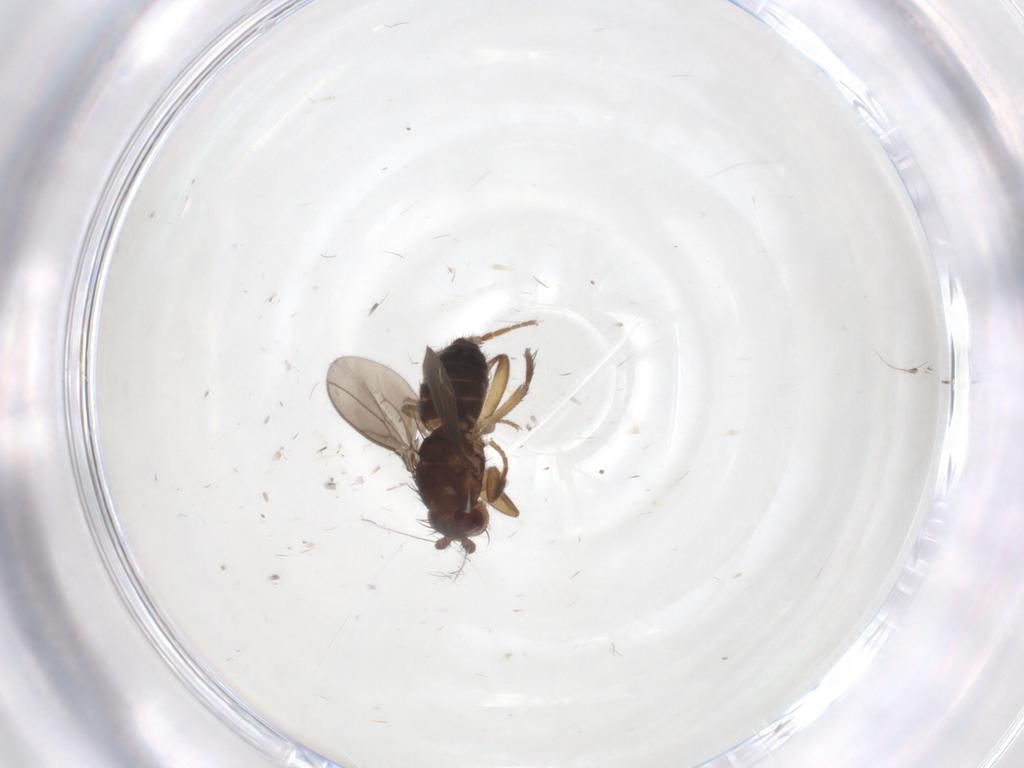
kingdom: Animalia
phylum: Arthropoda
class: Insecta
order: Diptera
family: Sphaeroceridae
